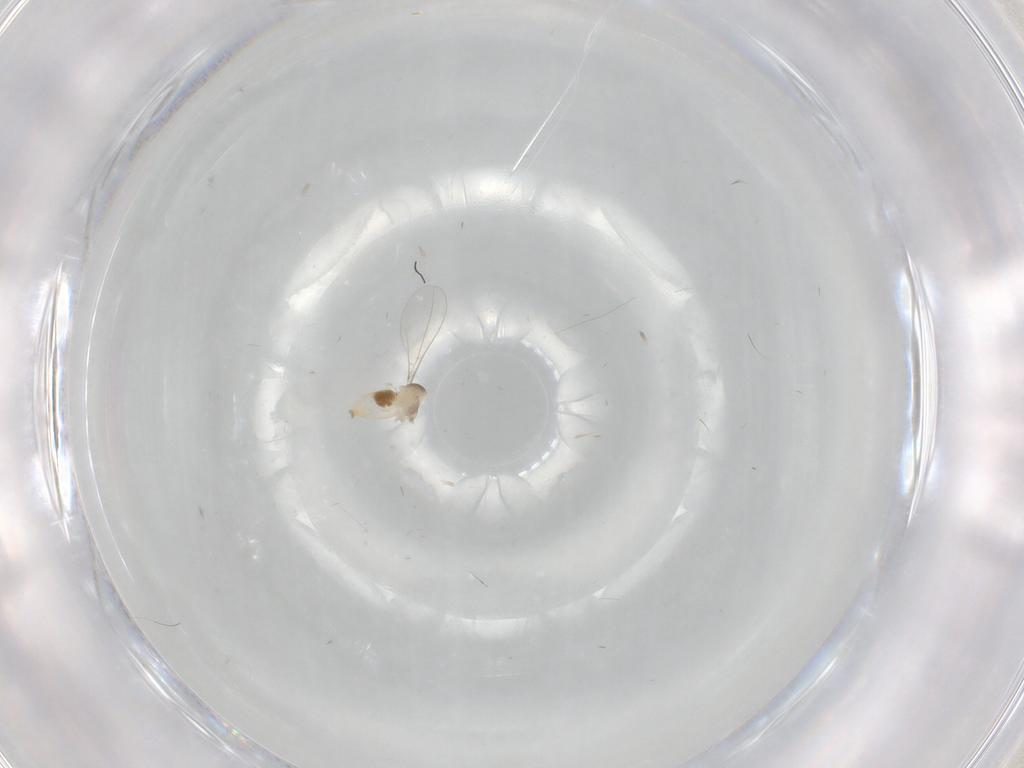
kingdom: Animalia
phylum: Arthropoda
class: Insecta
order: Diptera
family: Cecidomyiidae
